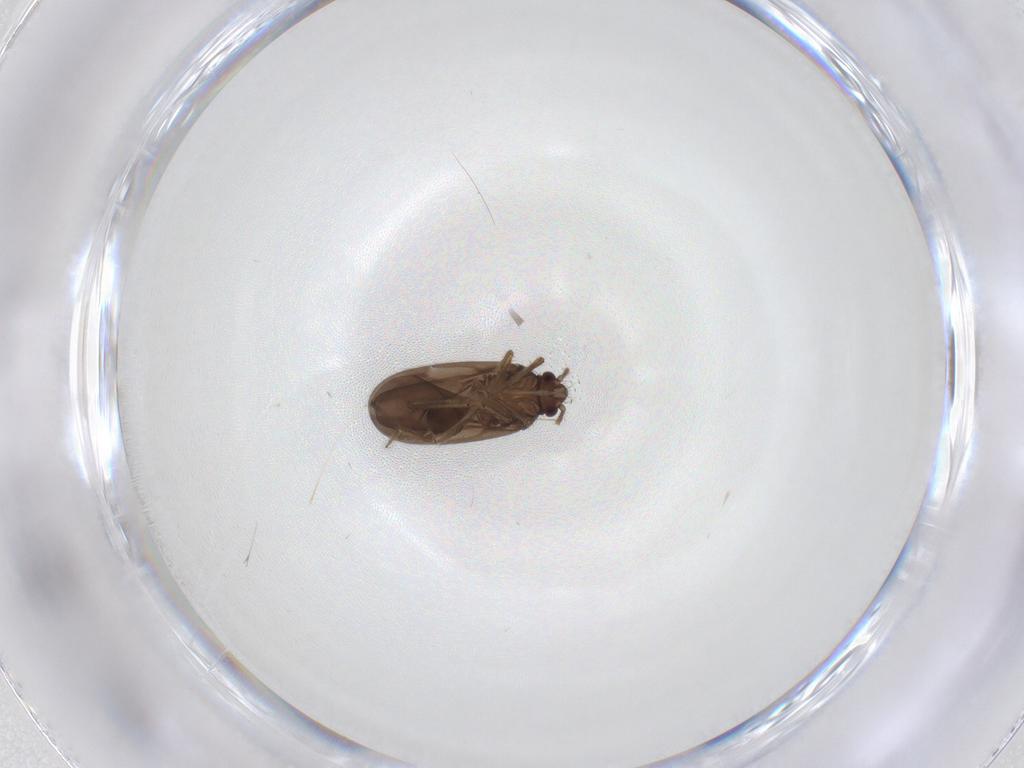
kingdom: Animalia
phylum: Arthropoda
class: Insecta
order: Hemiptera
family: Ceratocombidae
